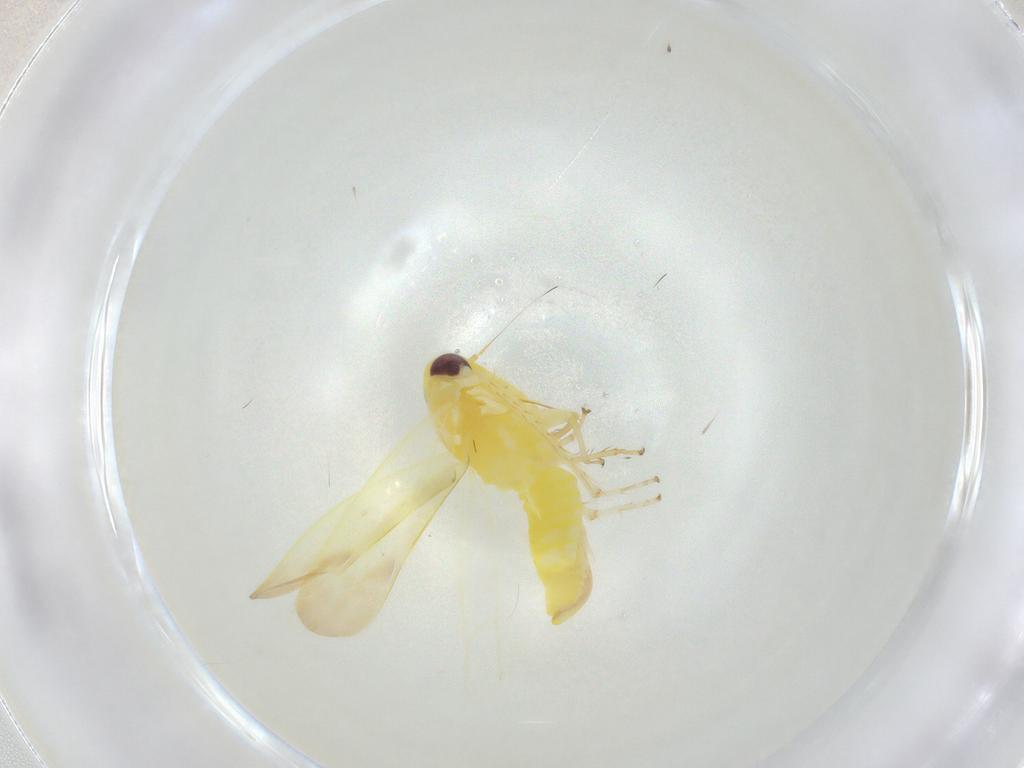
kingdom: Animalia
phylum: Arthropoda
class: Insecta
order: Hemiptera
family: Cicadellidae
